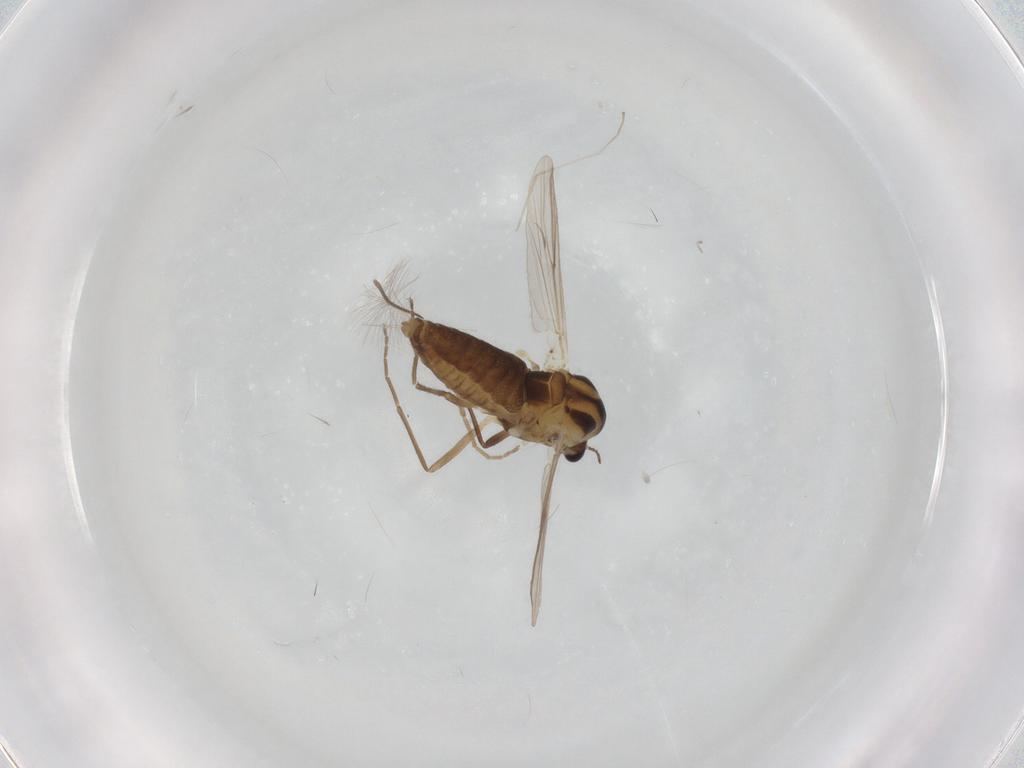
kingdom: Animalia
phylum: Arthropoda
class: Insecta
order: Diptera
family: Chironomidae
